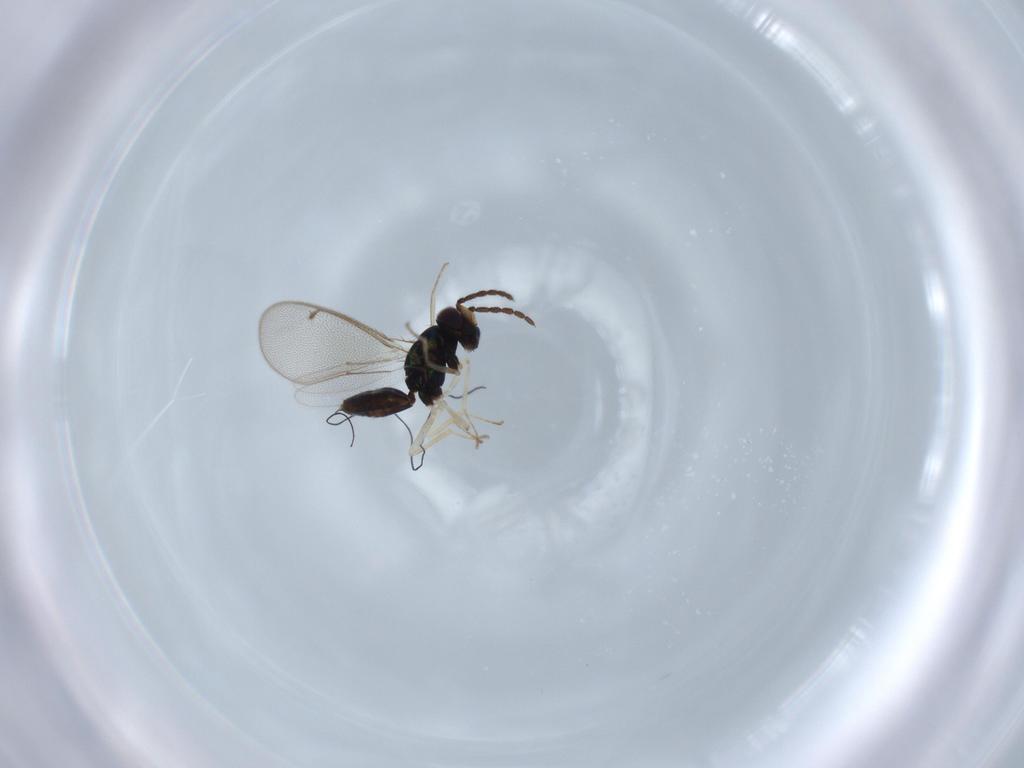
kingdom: Animalia
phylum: Arthropoda
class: Insecta
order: Hymenoptera
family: Eulophidae
